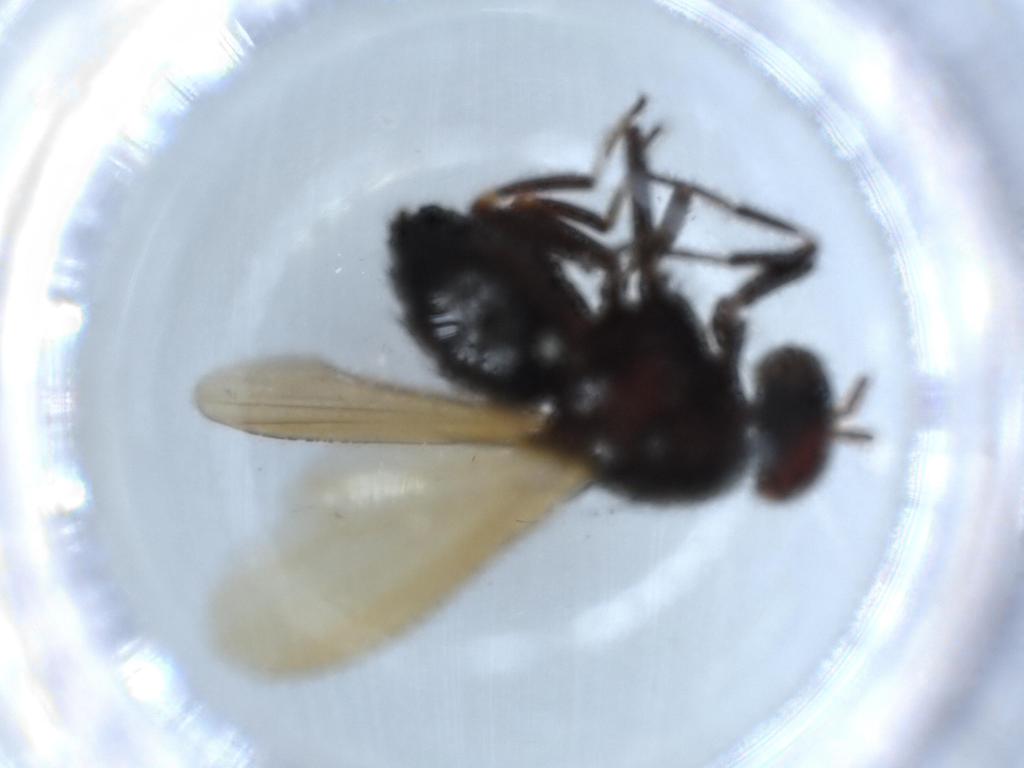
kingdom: Animalia
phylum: Arthropoda
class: Insecta
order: Diptera
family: Cecidomyiidae
